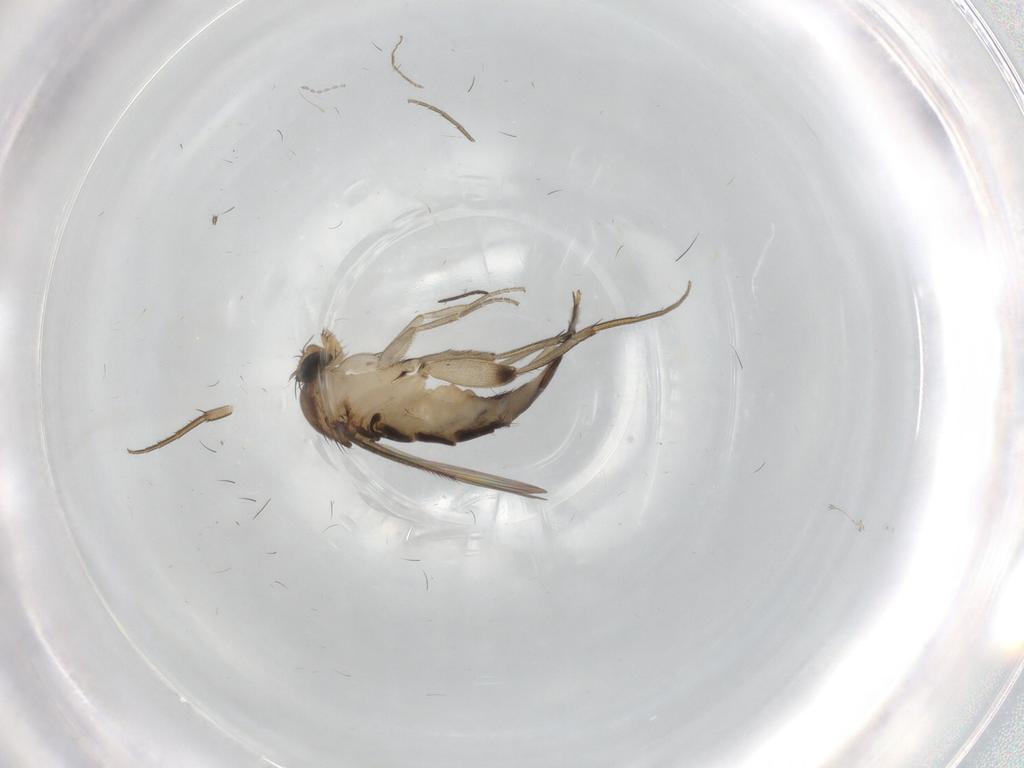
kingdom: Animalia
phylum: Arthropoda
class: Insecta
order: Diptera
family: Phoridae
